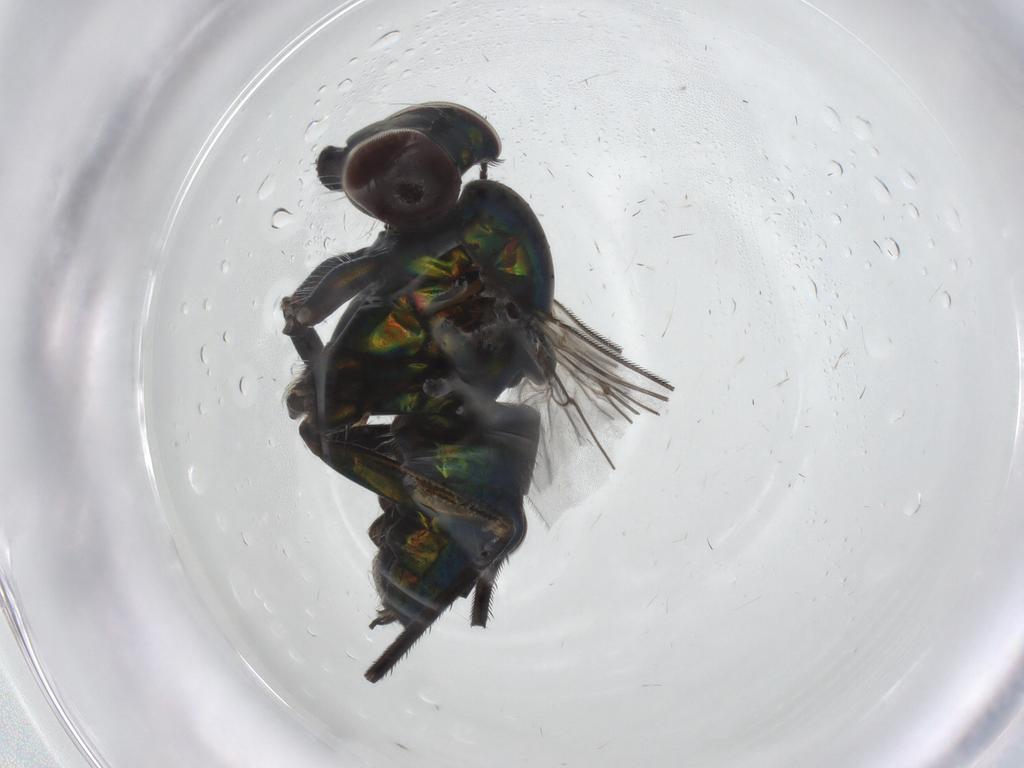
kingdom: Animalia
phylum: Arthropoda
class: Insecta
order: Diptera
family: Dolichopodidae
